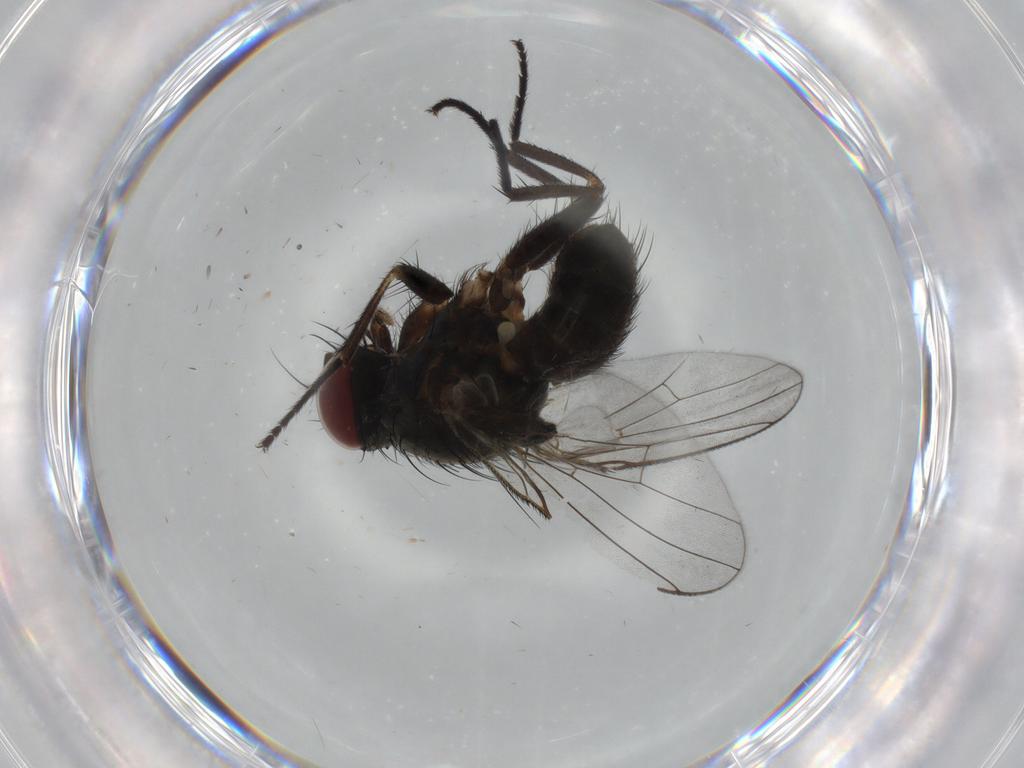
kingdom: Animalia
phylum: Arthropoda
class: Insecta
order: Diptera
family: Muscidae
